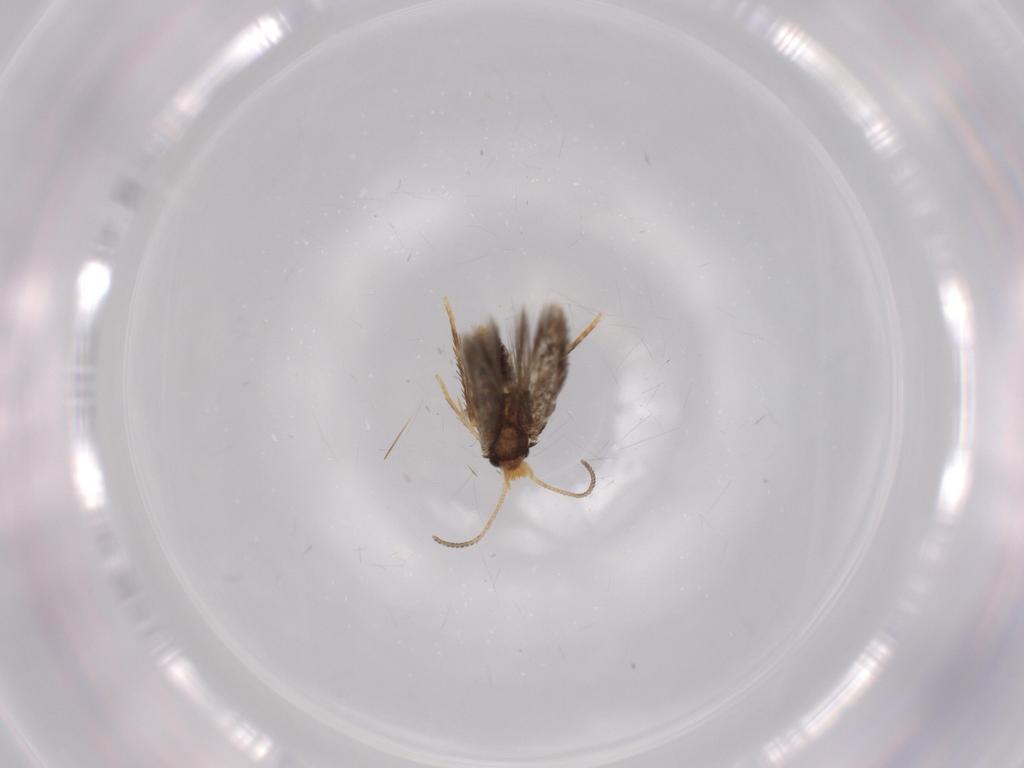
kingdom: Animalia
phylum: Arthropoda
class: Insecta
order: Lepidoptera
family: Nepticulidae
